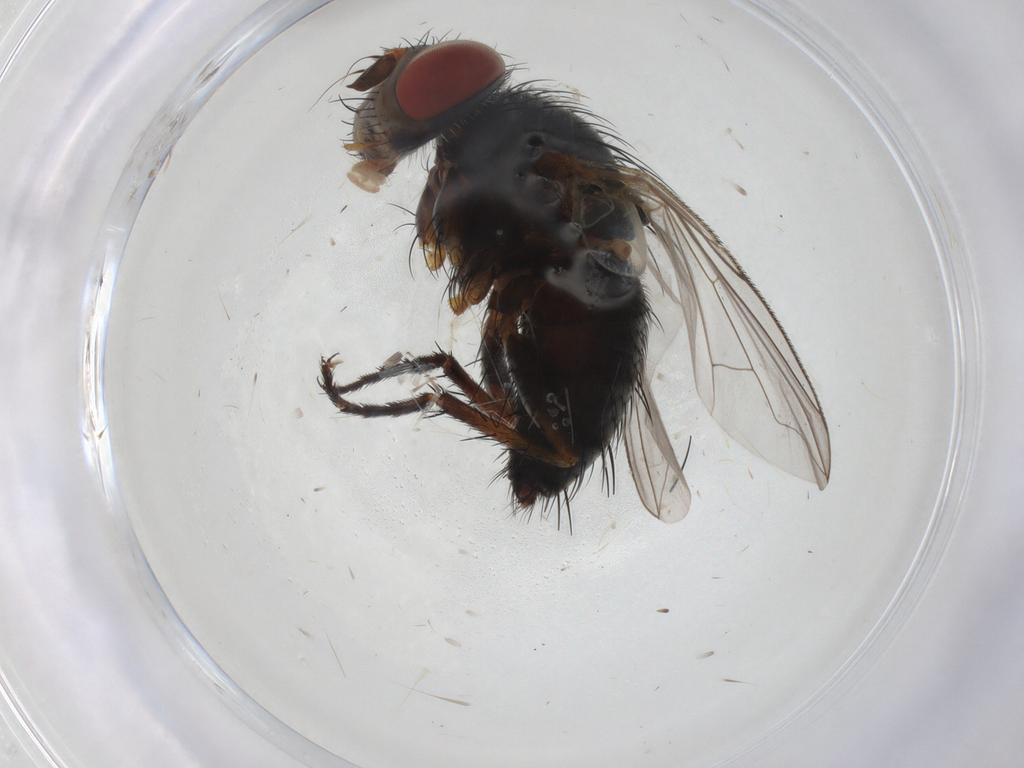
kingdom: Animalia
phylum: Arthropoda
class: Insecta
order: Diptera
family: Tachinidae
